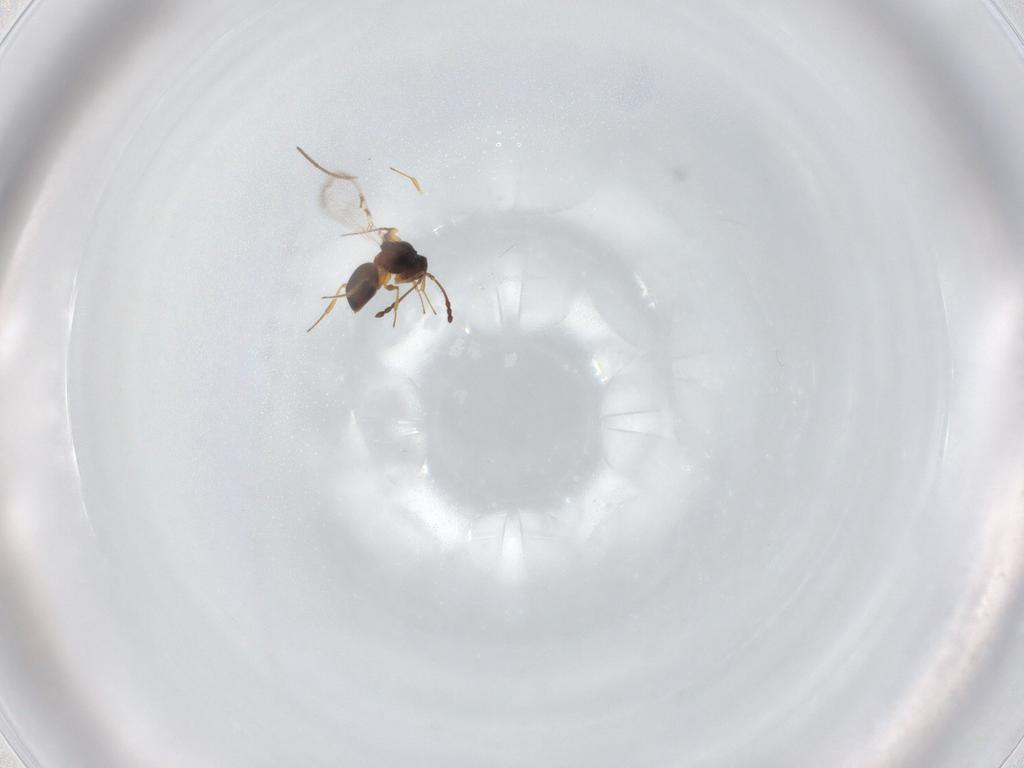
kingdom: Animalia
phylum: Arthropoda
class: Insecta
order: Hymenoptera
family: Figitidae
